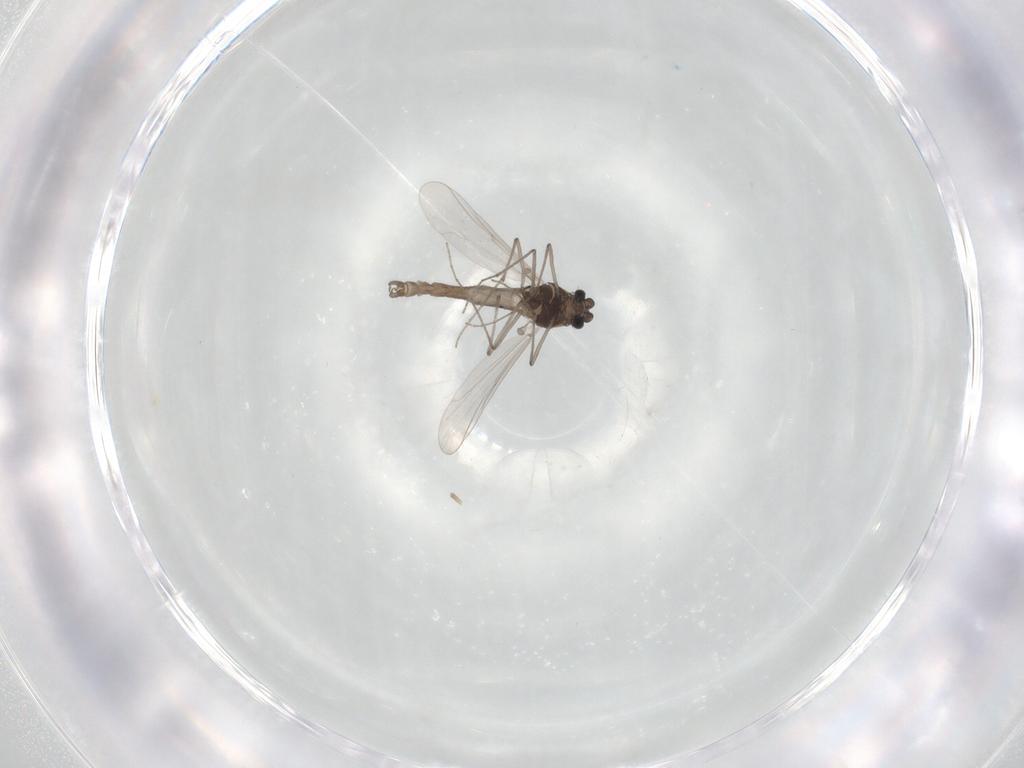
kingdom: Animalia
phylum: Arthropoda
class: Insecta
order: Diptera
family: Chironomidae
